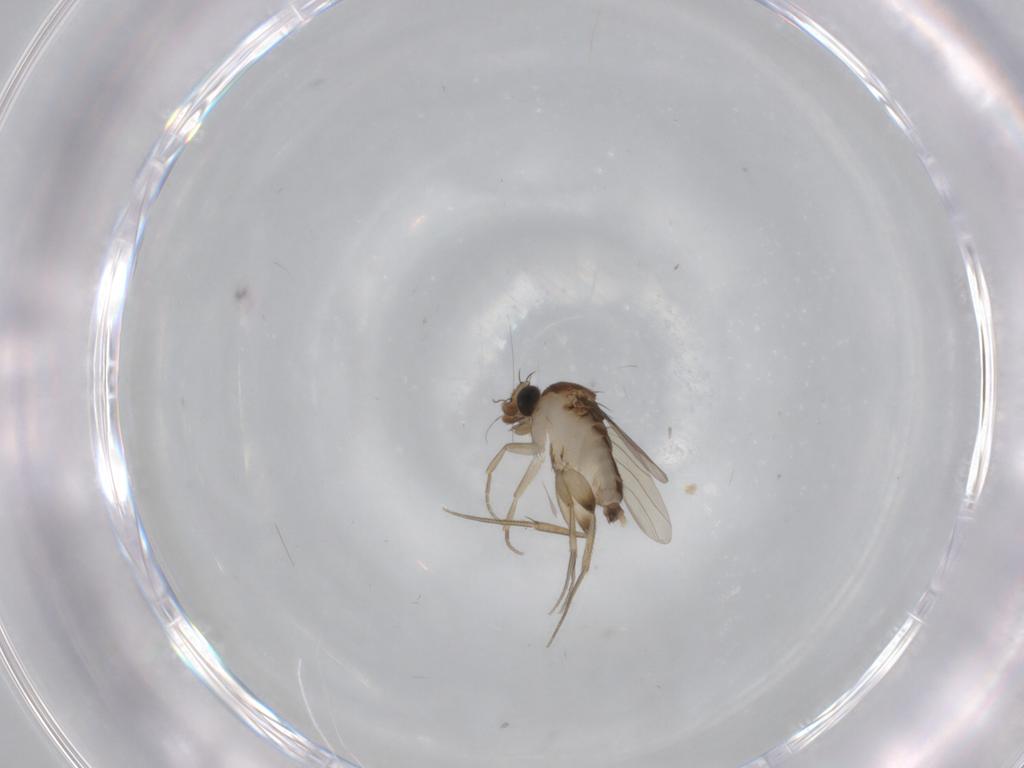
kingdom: Animalia
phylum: Arthropoda
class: Insecta
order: Diptera
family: Phoridae
